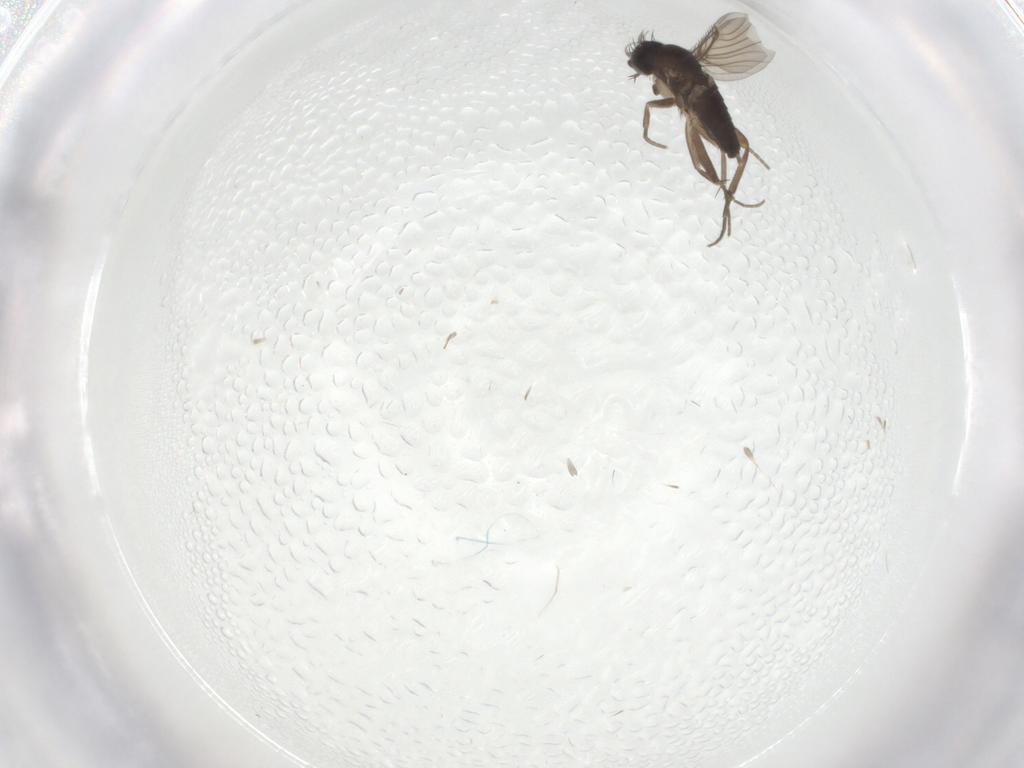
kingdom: Animalia
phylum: Arthropoda
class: Insecta
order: Diptera
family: Phoridae
